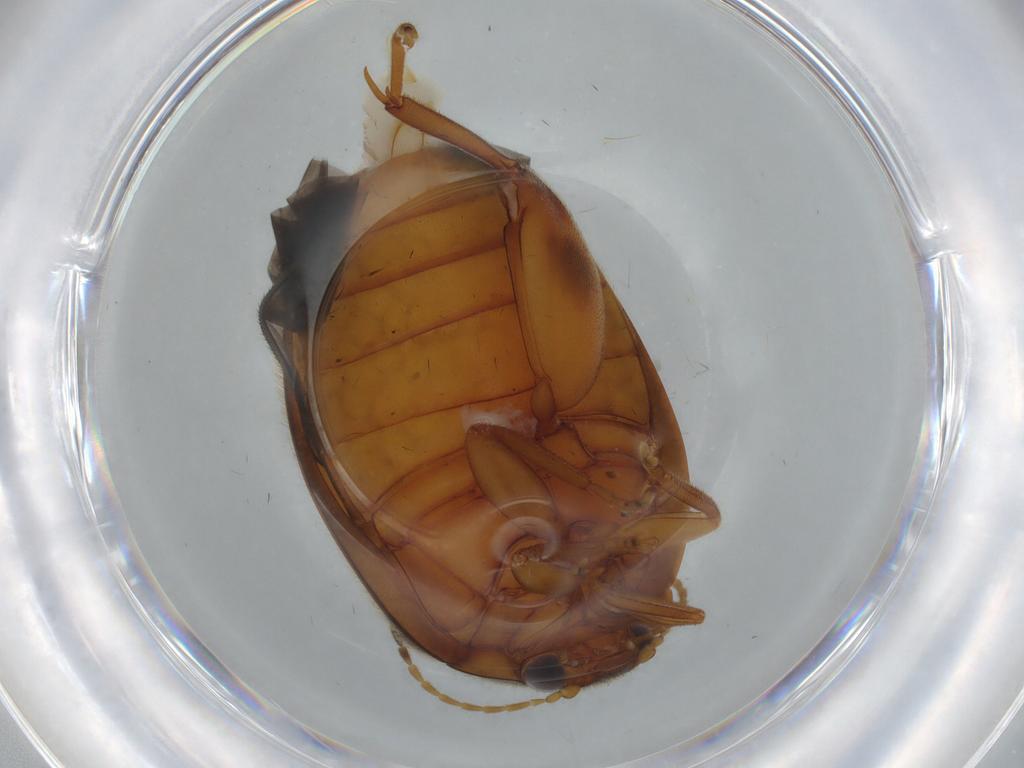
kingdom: Animalia
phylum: Arthropoda
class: Insecta
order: Coleoptera
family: Scirtidae
